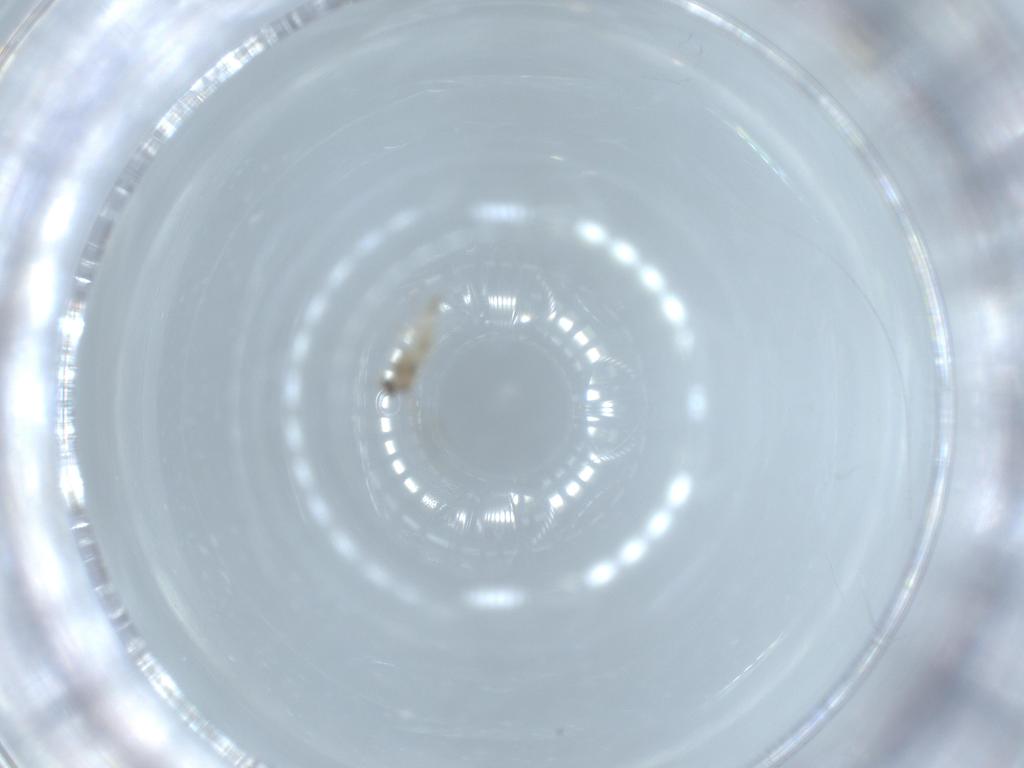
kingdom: Animalia
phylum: Arthropoda
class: Insecta
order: Diptera
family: Sciaridae
